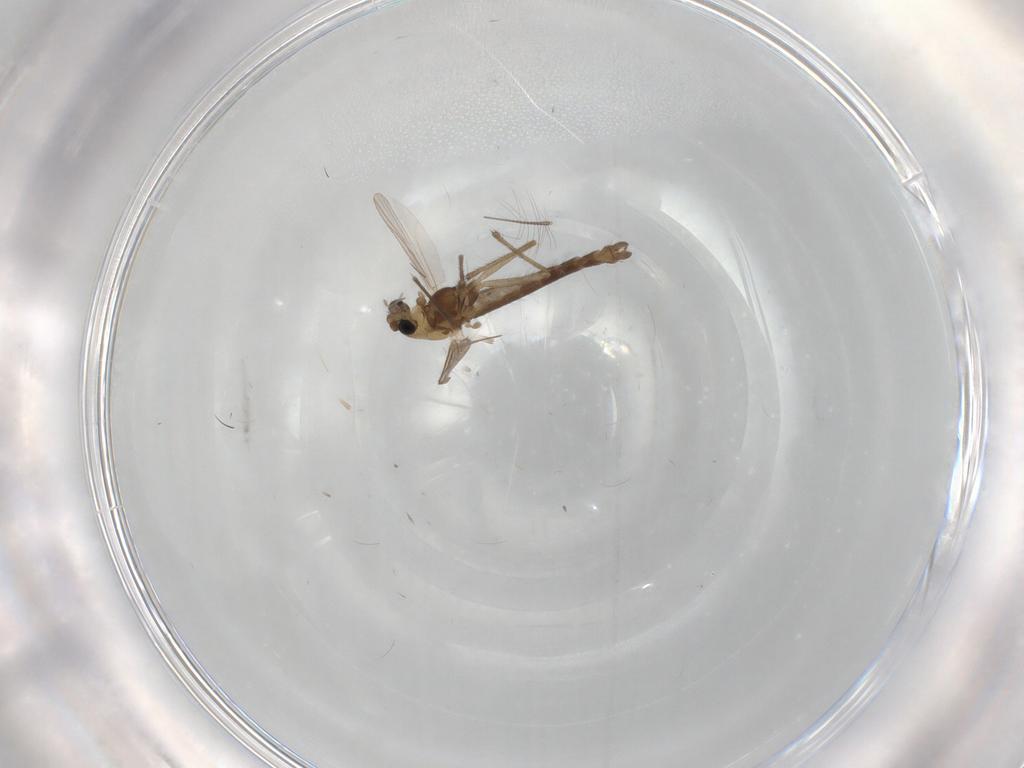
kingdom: Animalia
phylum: Arthropoda
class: Insecta
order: Diptera
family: Chironomidae
